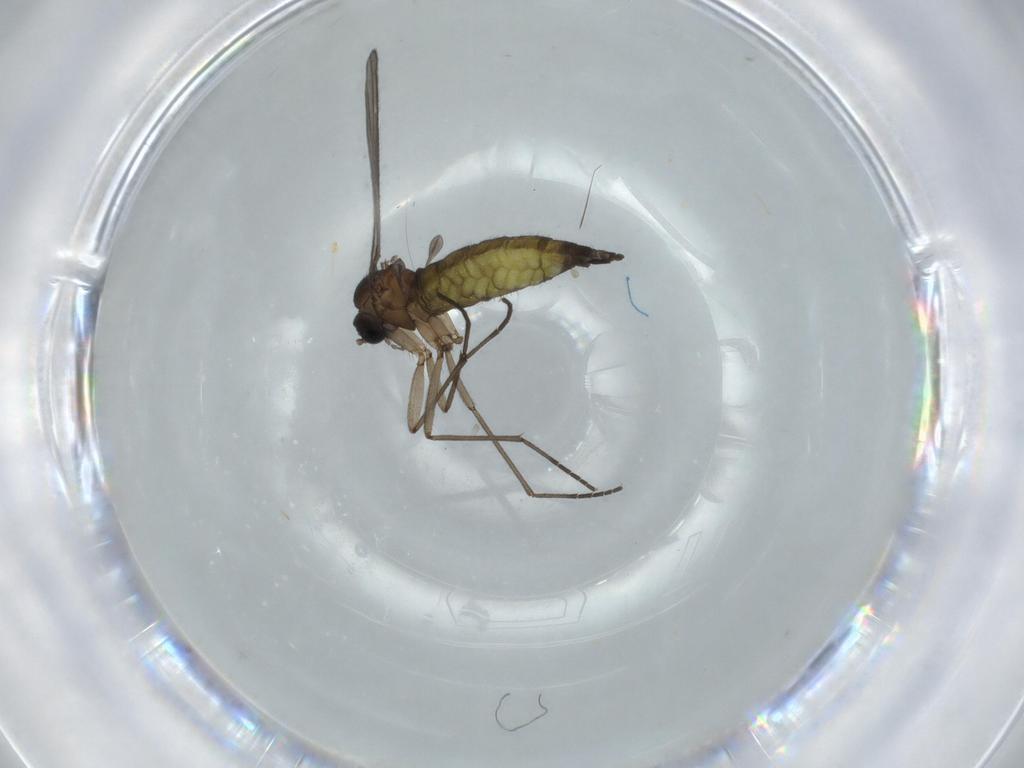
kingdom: Animalia
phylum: Arthropoda
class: Insecta
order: Diptera
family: Sciaridae
